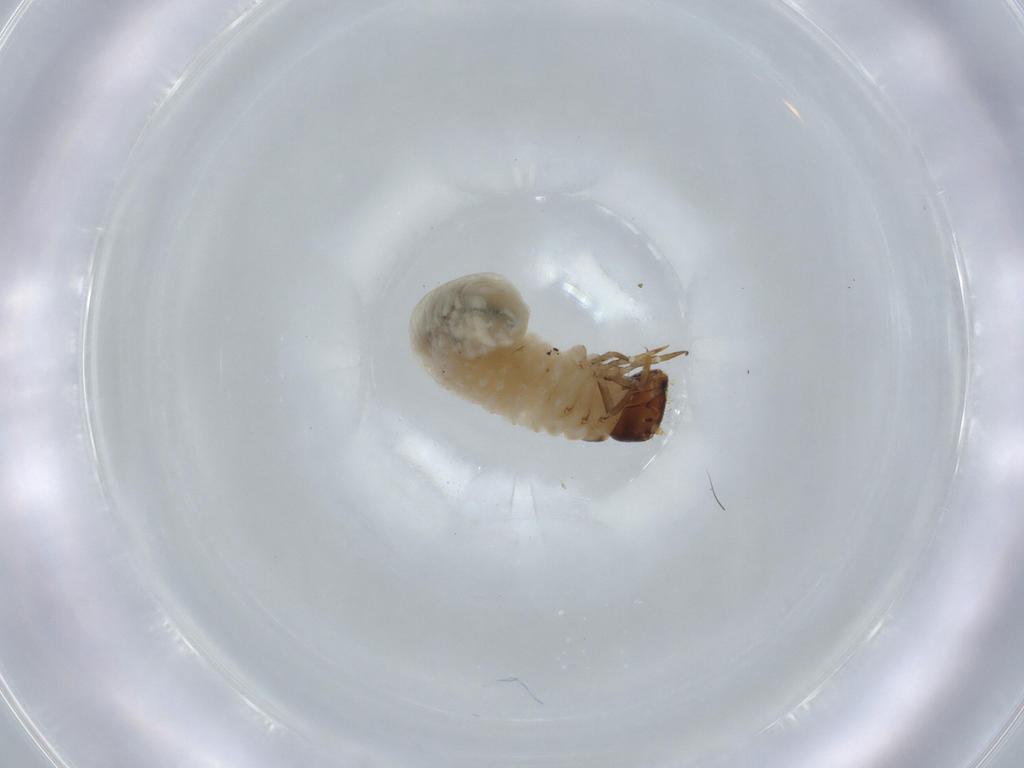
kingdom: Animalia
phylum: Arthropoda
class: Insecta
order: Coleoptera
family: Chrysomelidae
